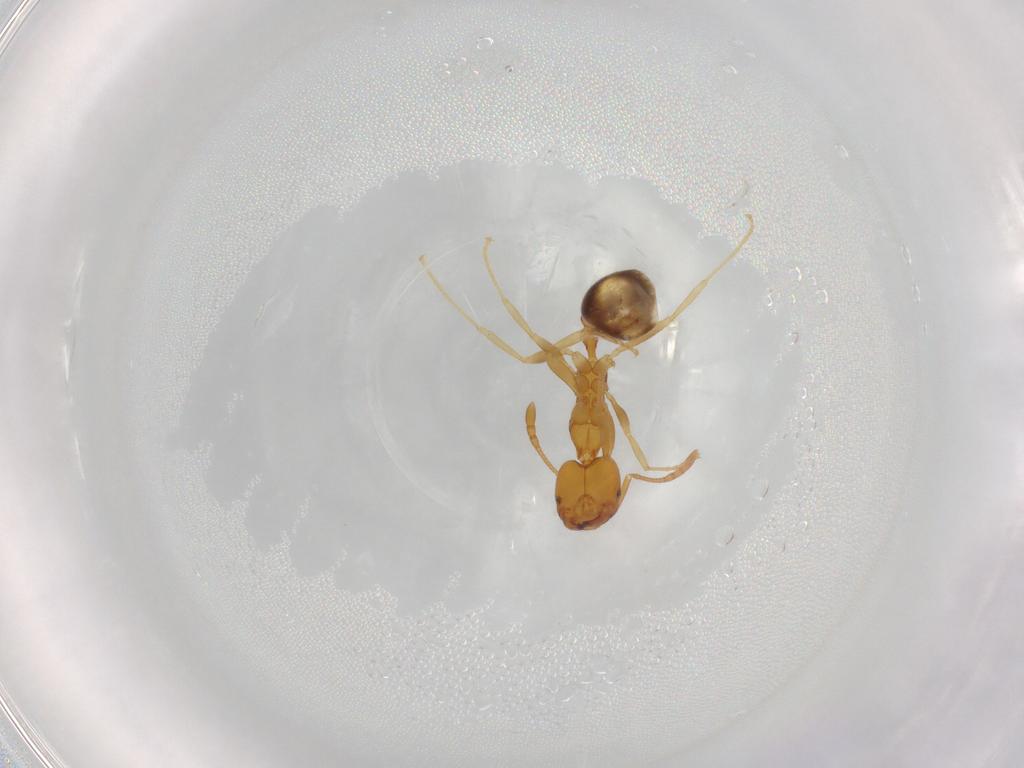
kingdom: Animalia
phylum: Arthropoda
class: Insecta
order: Hymenoptera
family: Formicidae
